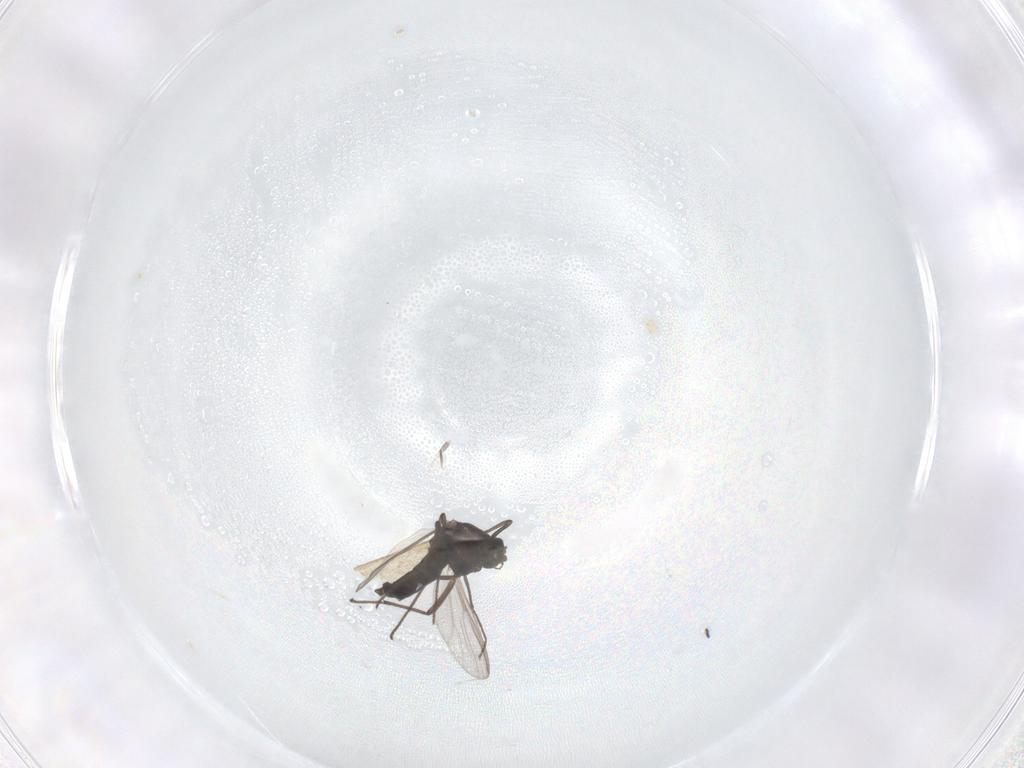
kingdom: Animalia
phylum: Arthropoda
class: Insecta
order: Diptera
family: Chironomidae
